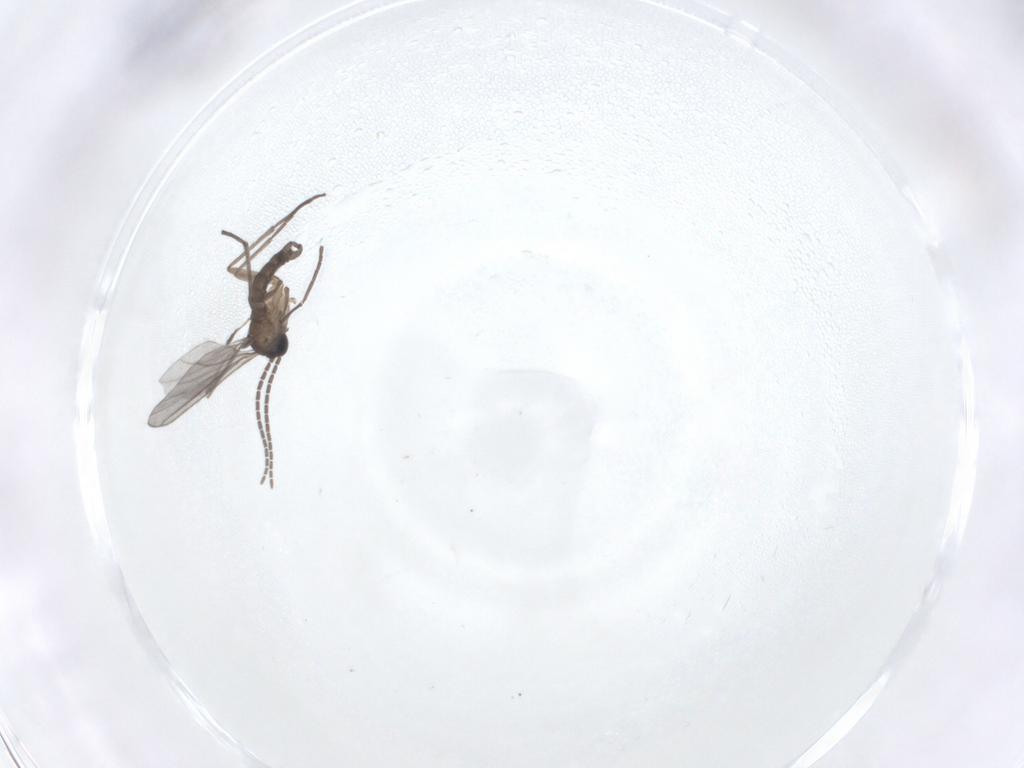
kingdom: Animalia
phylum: Arthropoda
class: Insecta
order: Diptera
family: Sciaridae
